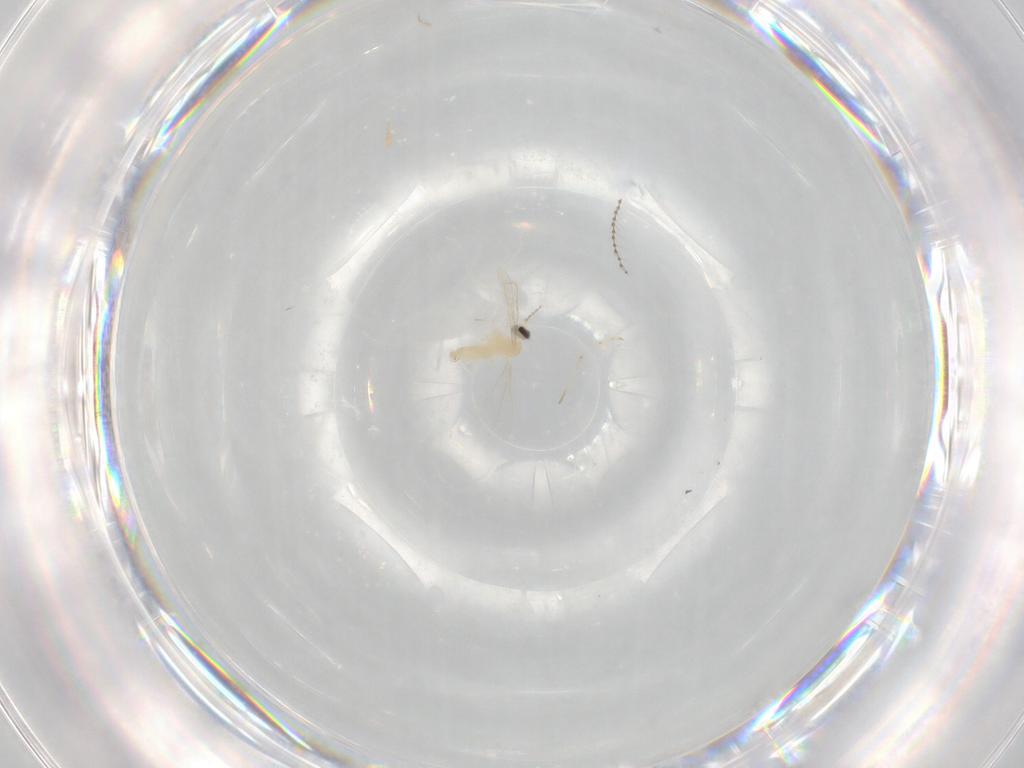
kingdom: Animalia
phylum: Arthropoda
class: Insecta
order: Diptera
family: Cecidomyiidae
